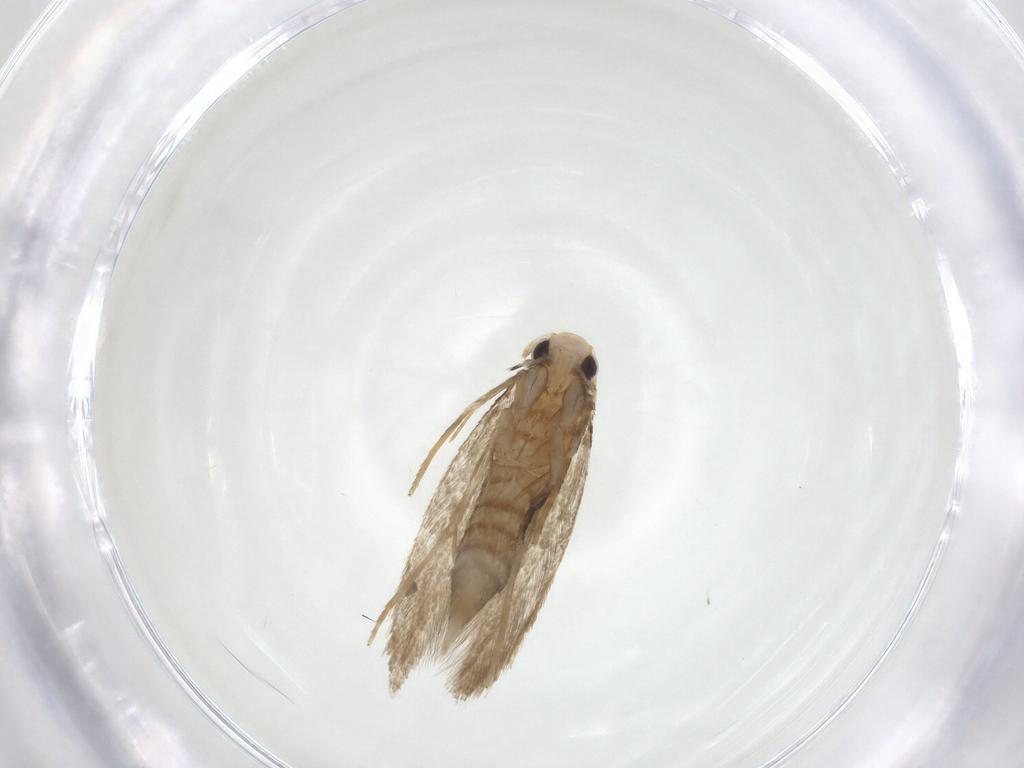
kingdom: Animalia
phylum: Arthropoda
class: Insecta
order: Lepidoptera
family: Tineidae
